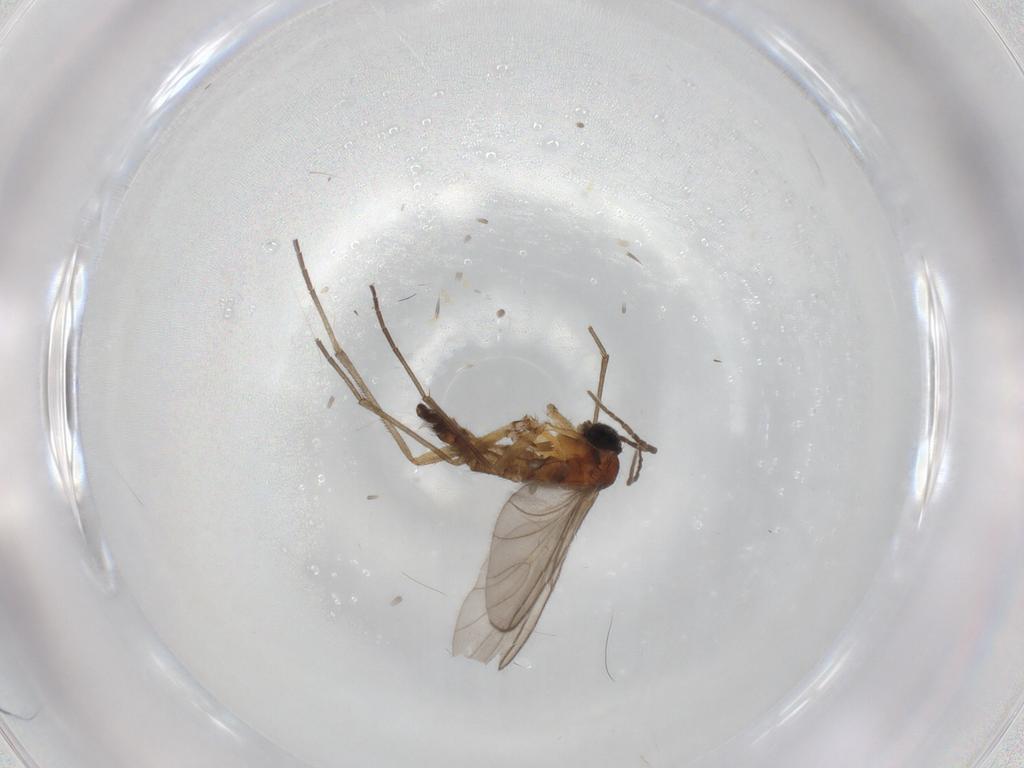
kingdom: Animalia
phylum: Arthropoda
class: Insecta
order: Diptera
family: Sciaridae
